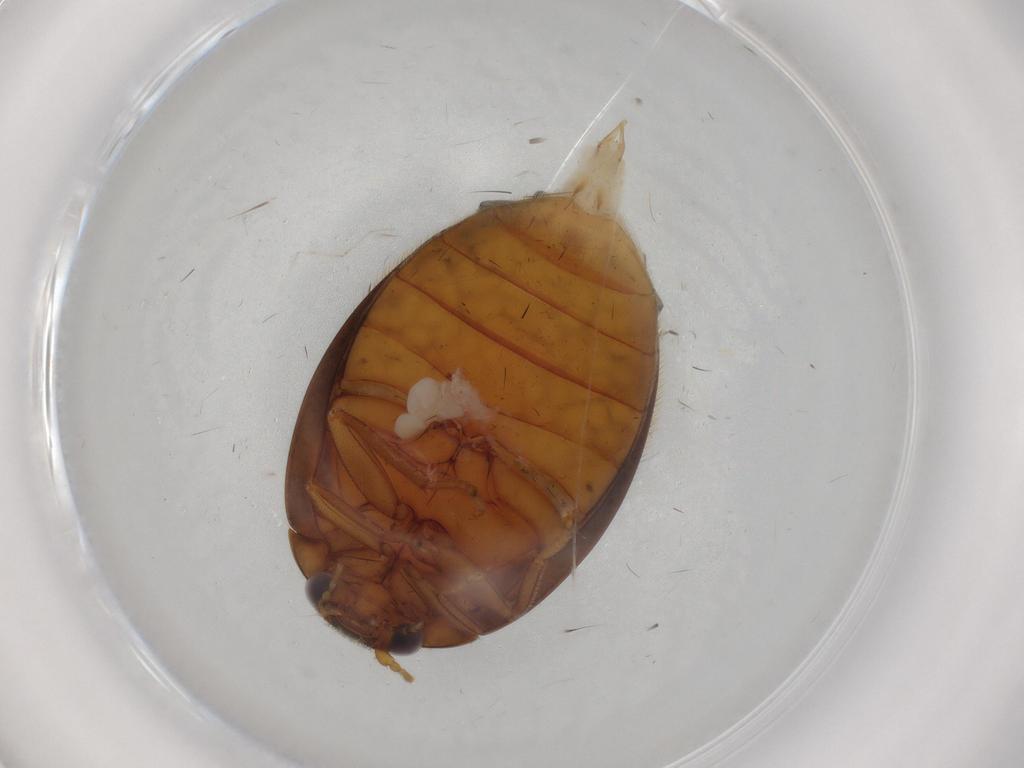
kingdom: Animalia
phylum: Arthropoda
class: Insecta
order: Coleoptera
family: Scirtidae
